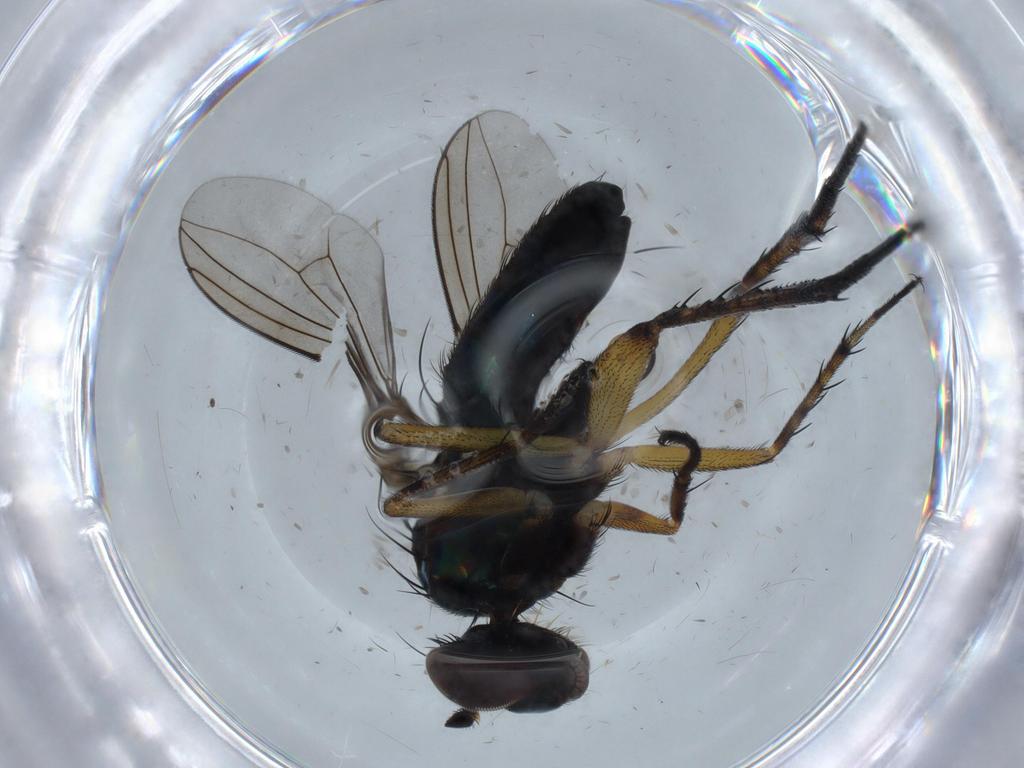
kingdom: Animalia
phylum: Arthropoda
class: Insecta
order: Diptera
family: Dolichopodidae
